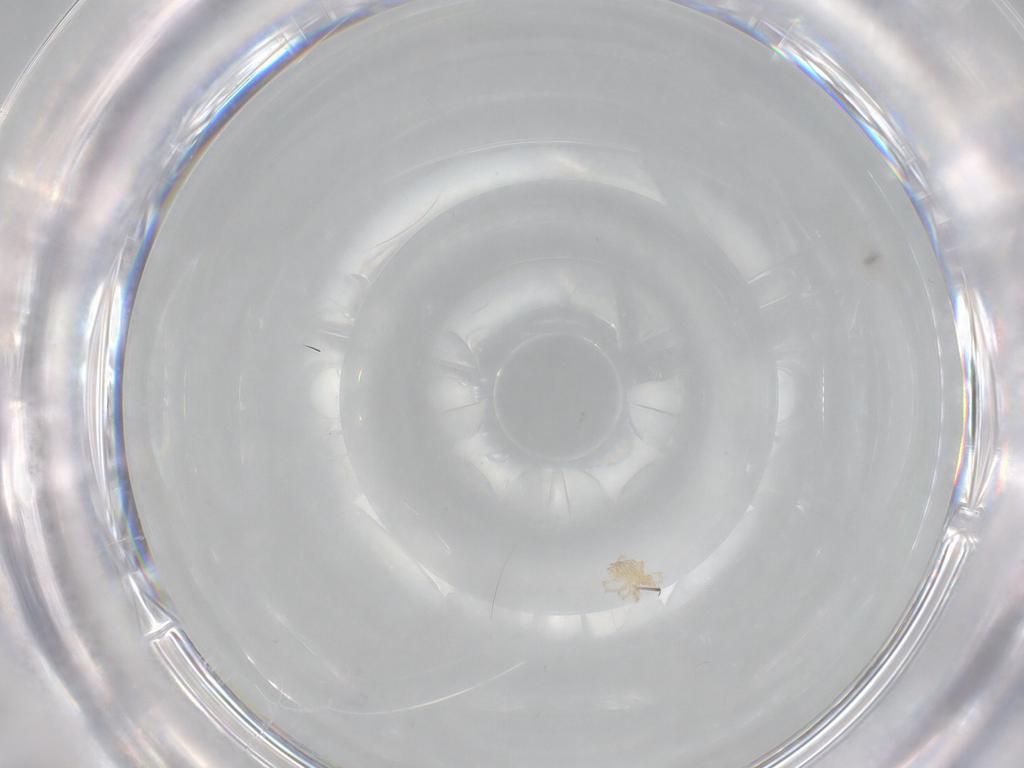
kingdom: Animalia
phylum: Arthropoda
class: Arachnida
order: Trombidiformes
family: Erythraeidae
